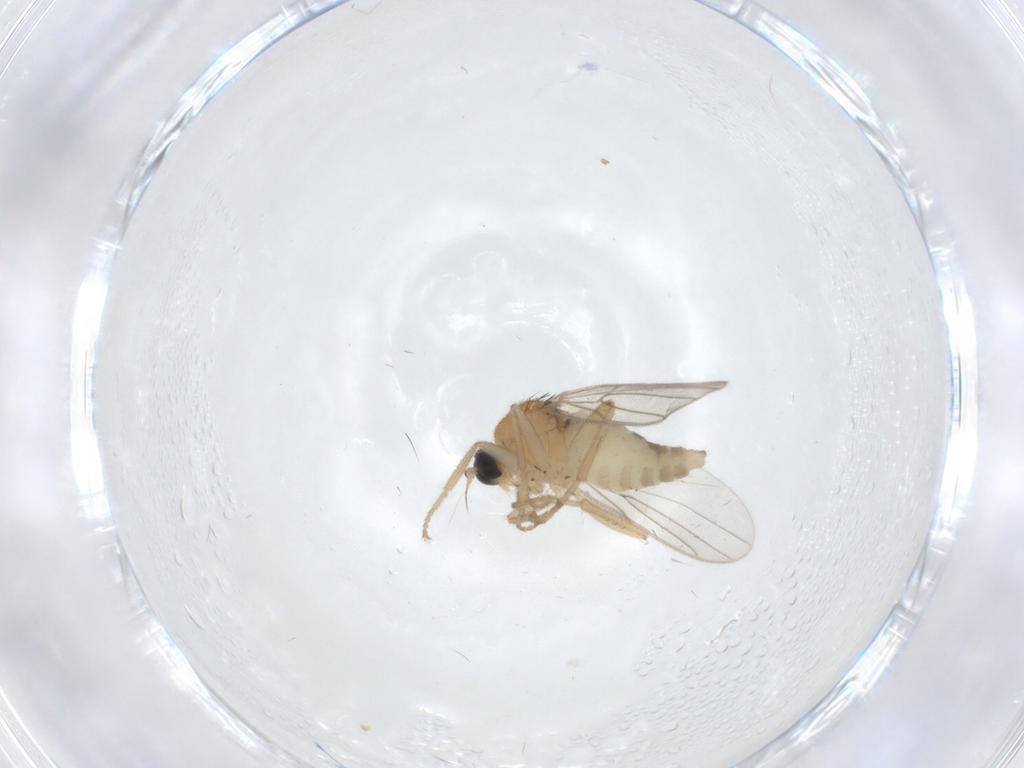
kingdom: Animalia
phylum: Arthropoda
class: Insecta
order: Diptera
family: Hybotidae
